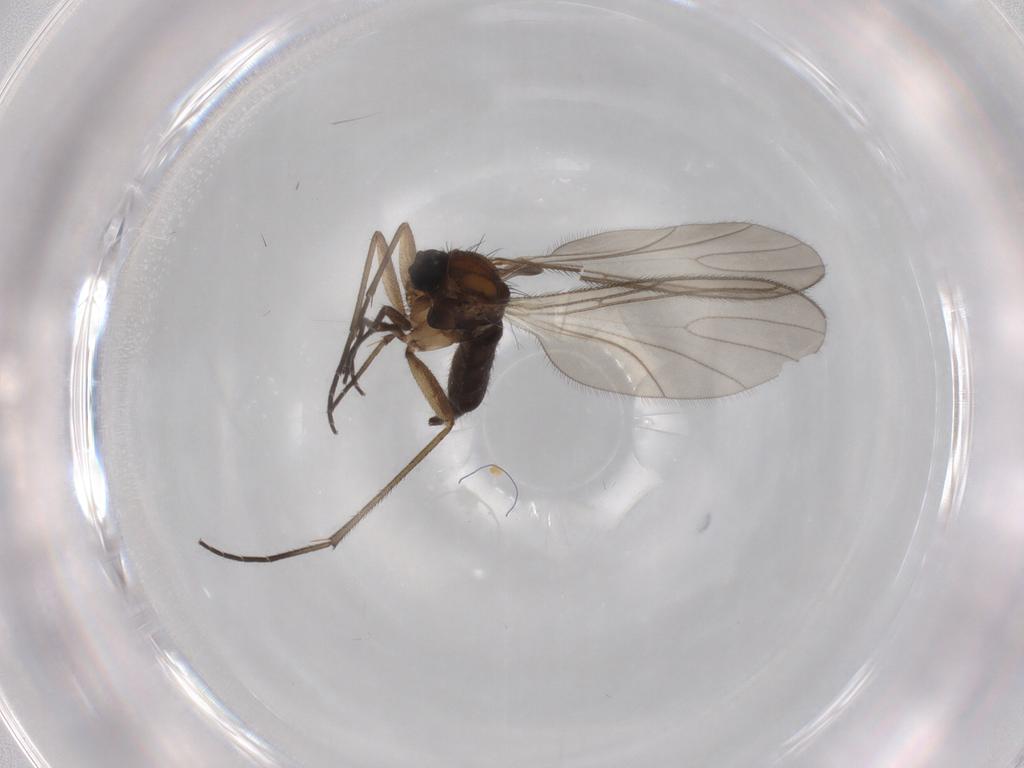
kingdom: Animalia
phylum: Arthropoda
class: Insecta
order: Diptera
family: Sciaridae
